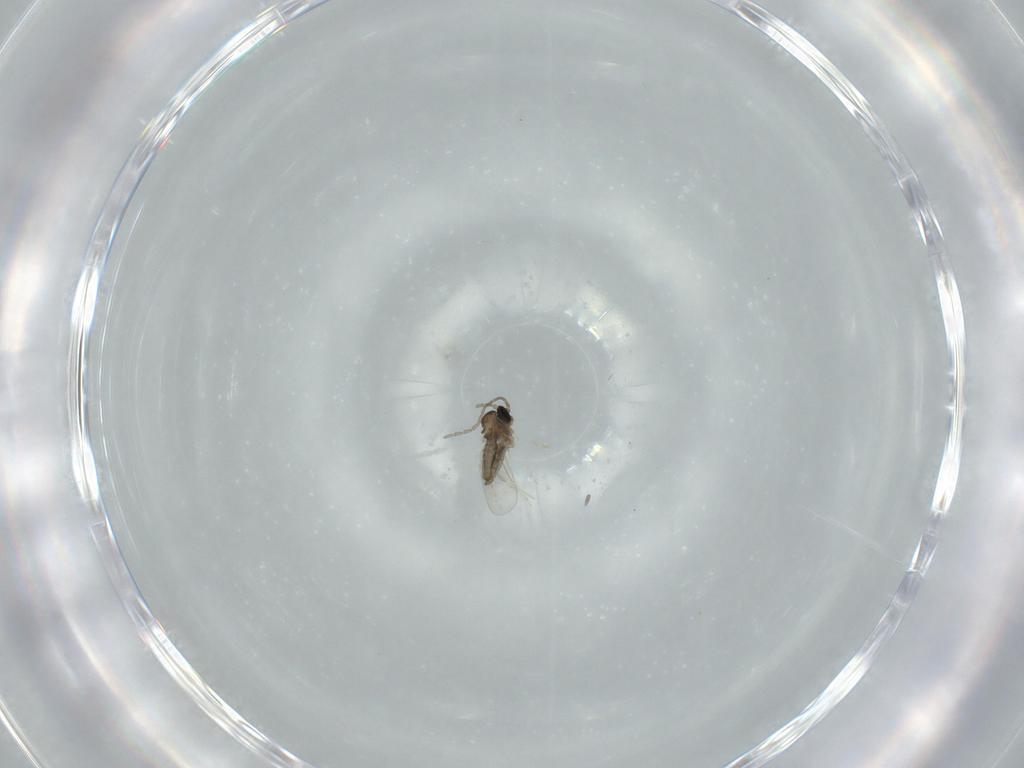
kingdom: Animalia
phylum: Arthropoda
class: Insecta
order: Diptera
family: Cecidomyiidae
